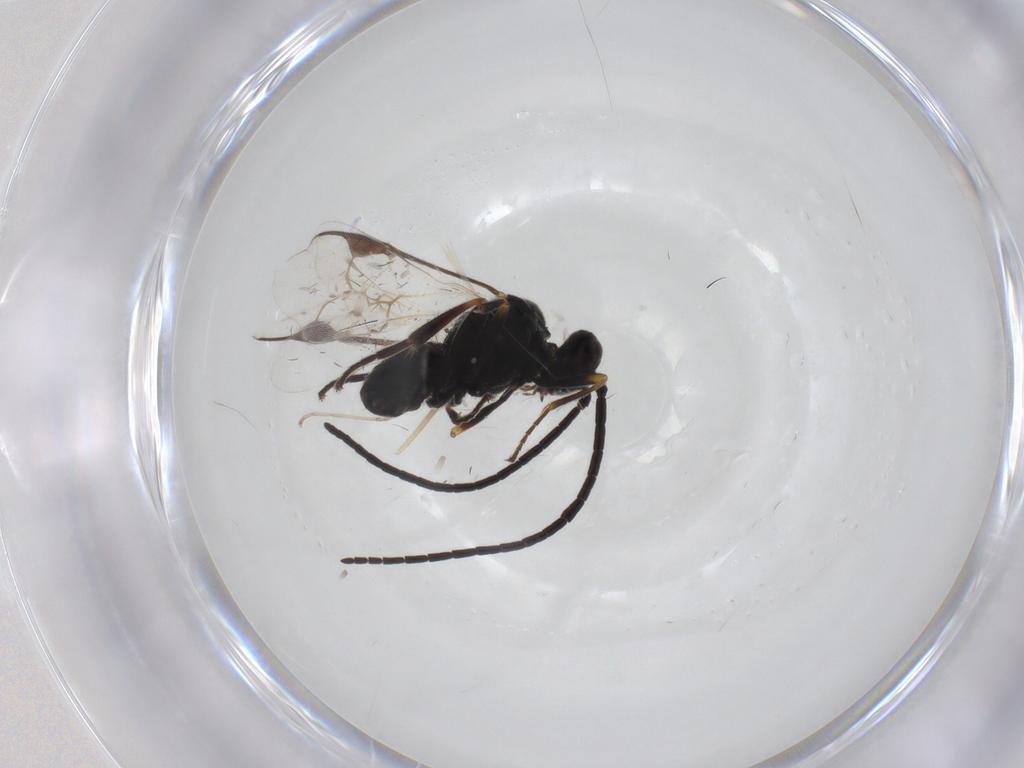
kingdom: Animalia
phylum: Arthropoda
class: Insecta
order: Hymenoptera
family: Braconidae
